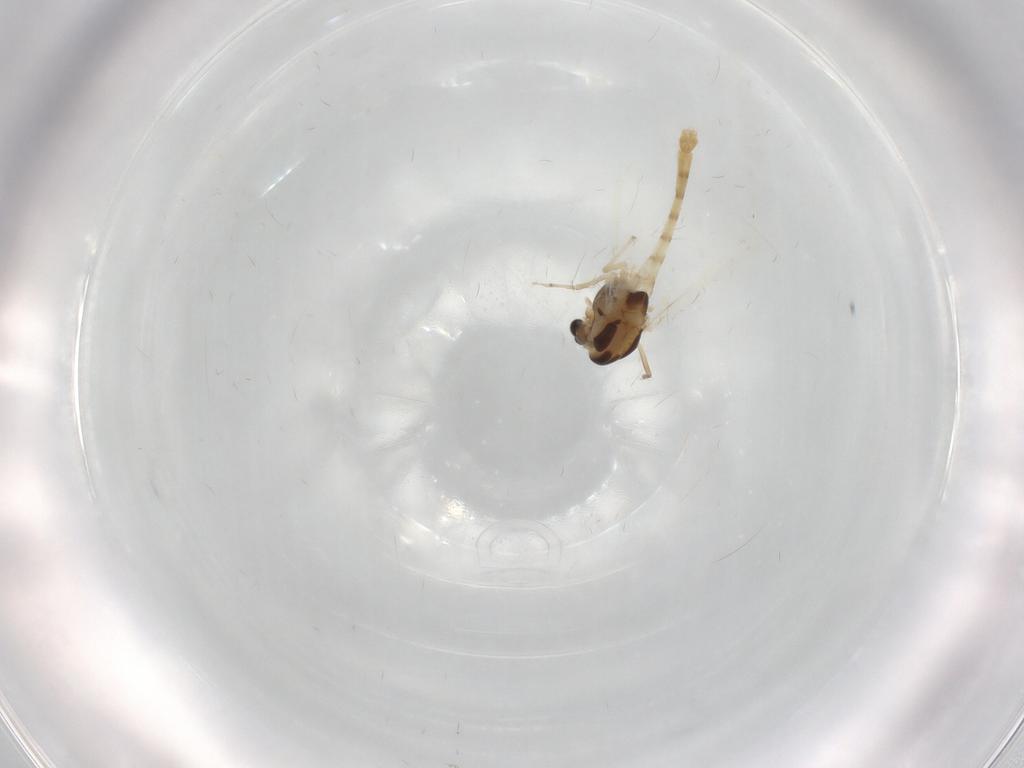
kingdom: Animalia
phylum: Arthropoda
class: Insecta
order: Diptera
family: Chironomidae
